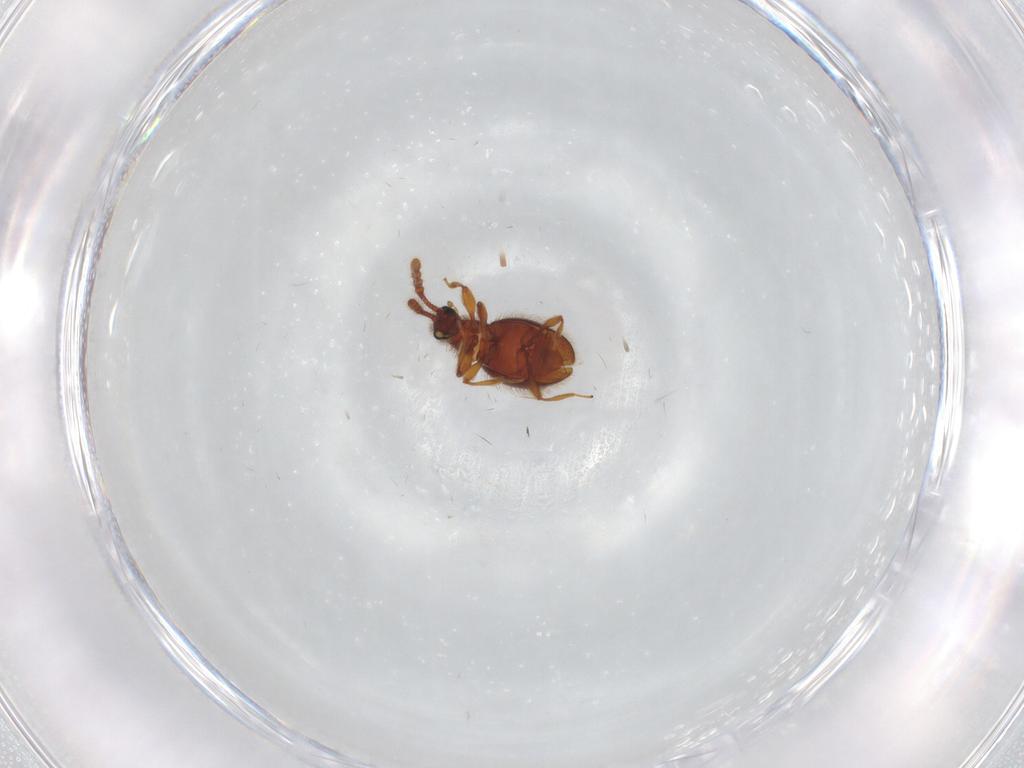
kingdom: Animalia
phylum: Arthropoda
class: Insecta
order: Coleoptera
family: Staphylinidae
